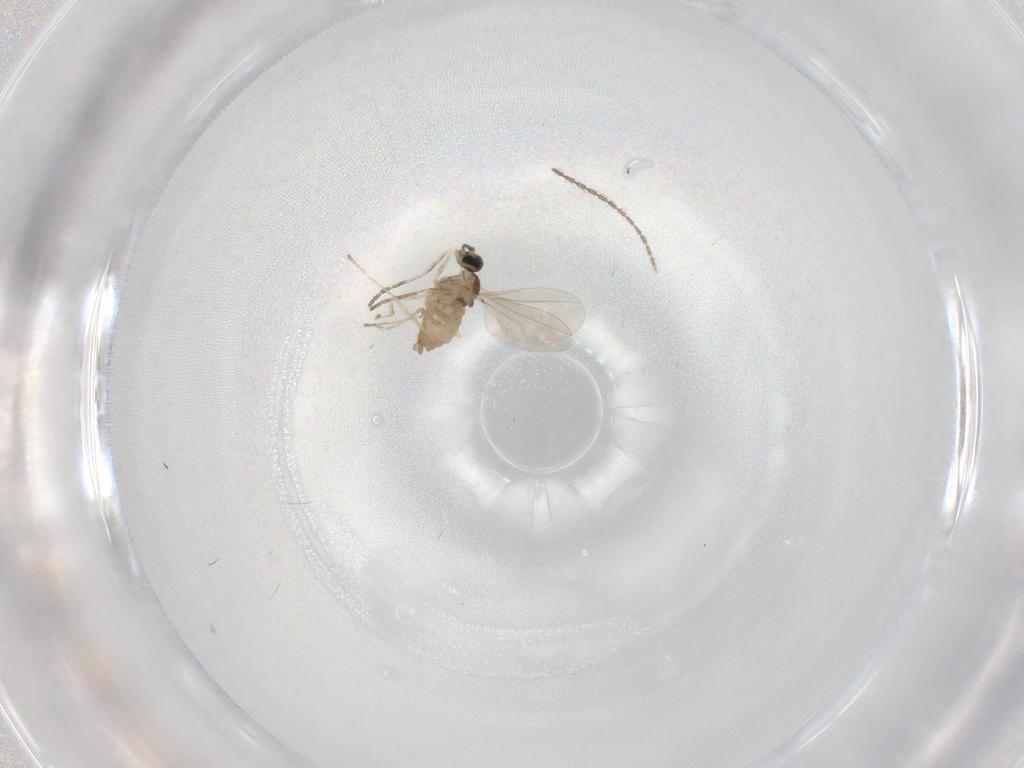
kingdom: Animalia
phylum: Arthropoda
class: Insecta
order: Diptera
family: Cecidomyiidae
